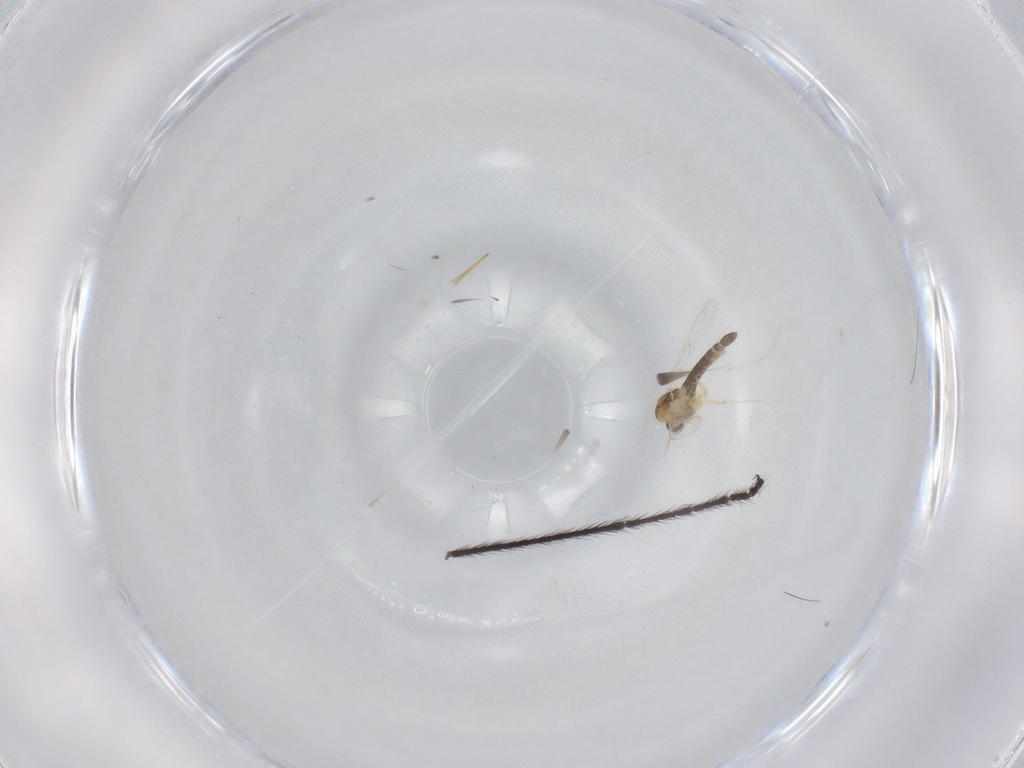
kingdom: Animalia
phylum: Arthropoda
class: Insecta
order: Diptera
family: Chironomidae
